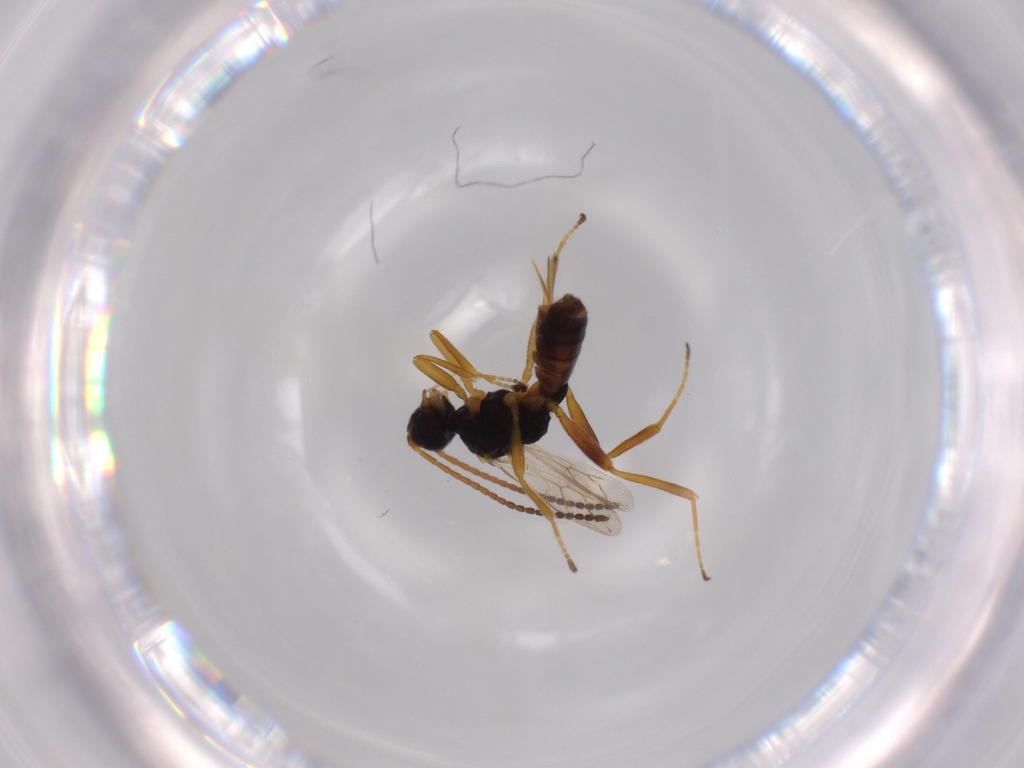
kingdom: Animalia
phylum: Arthropoda
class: Insecta
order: Hymenoptera
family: Braconidae
